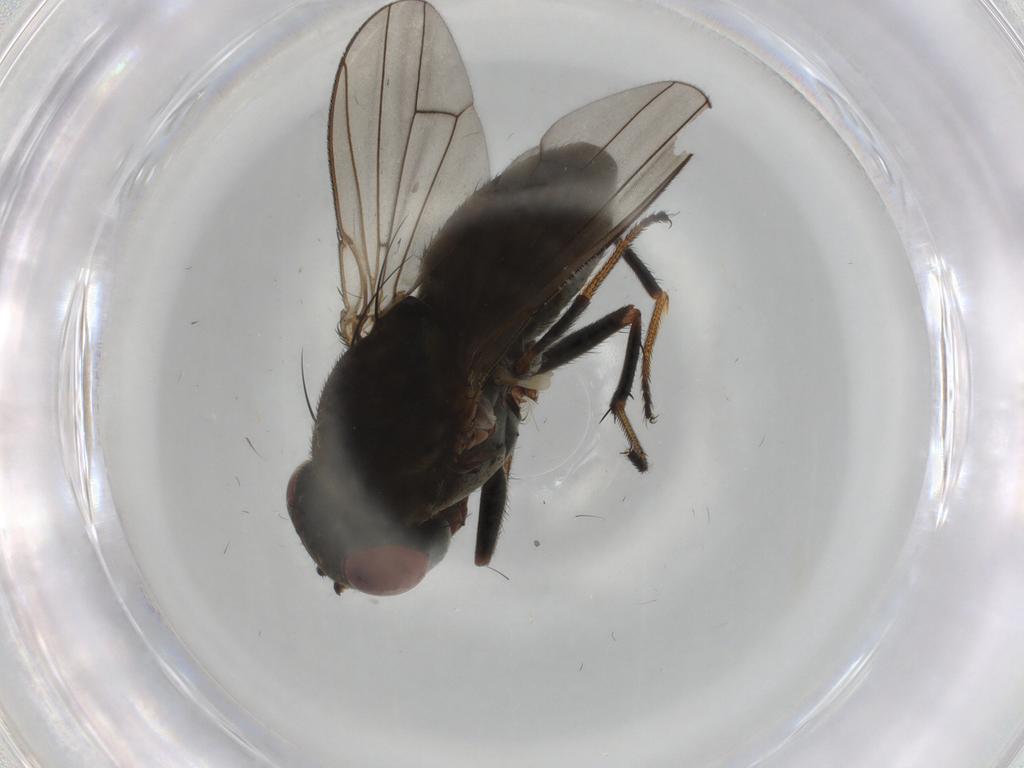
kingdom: Animalia
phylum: Arthropoda
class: Insecta
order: Diptera
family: Ephydridae
